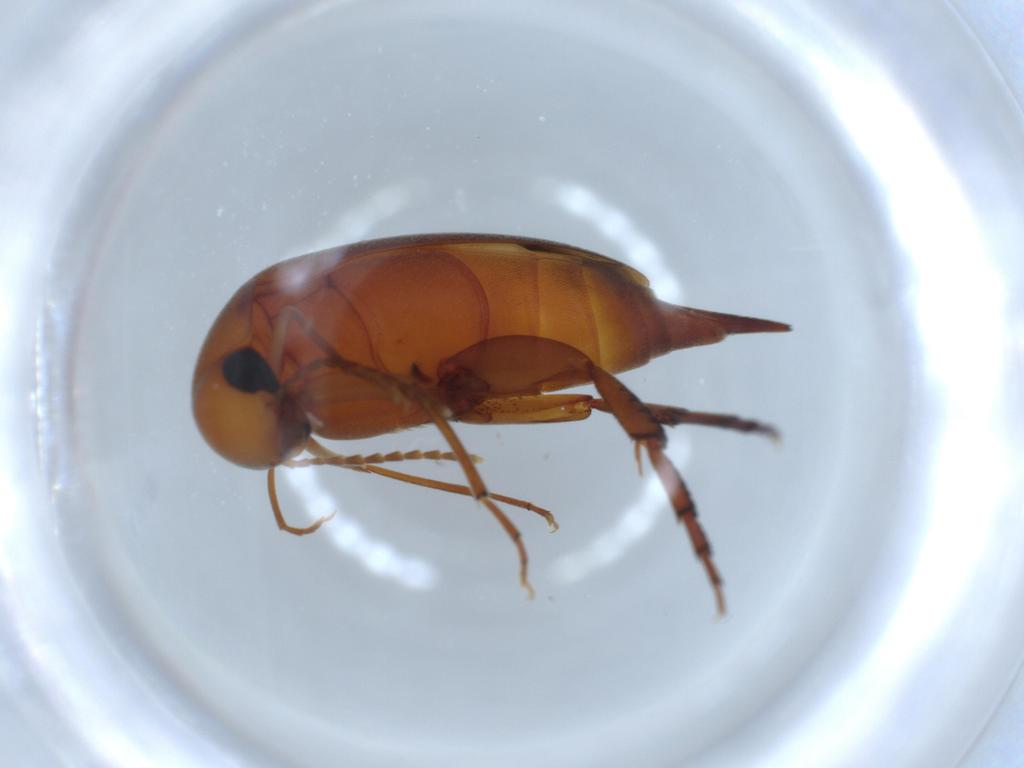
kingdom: Animalia
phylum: Arthropoda
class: Insecta
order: Coleoptera
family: Mordellidae
